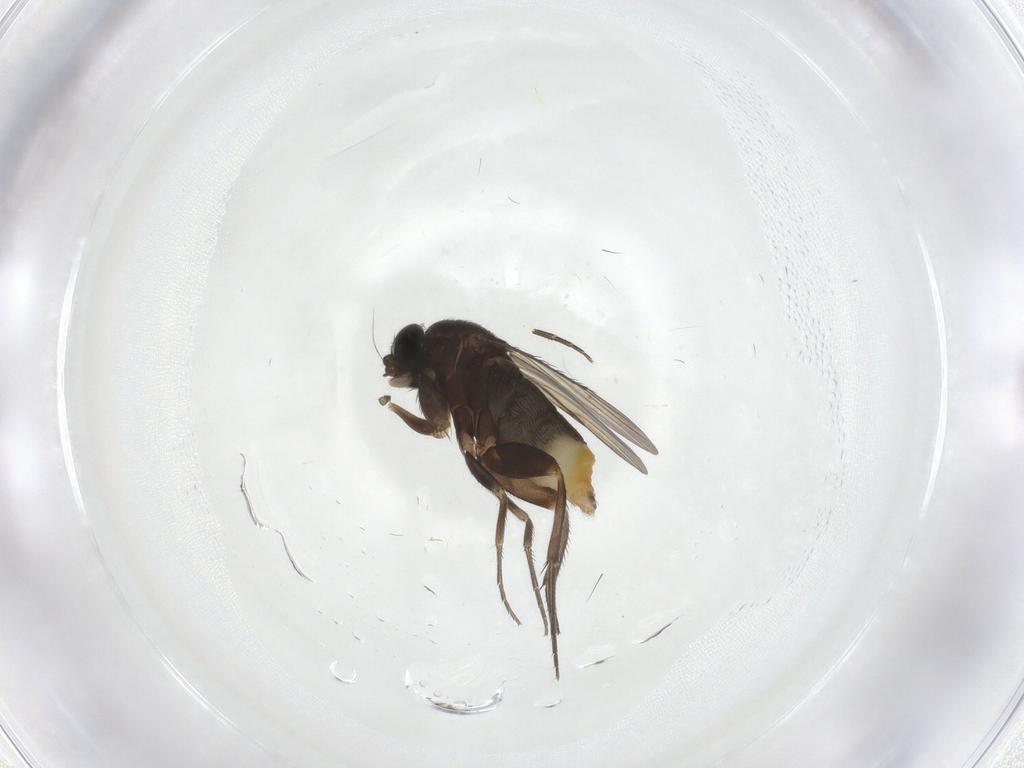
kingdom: Animalia
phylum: Arthropoda
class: Insecta
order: Diptera
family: Phoridae
